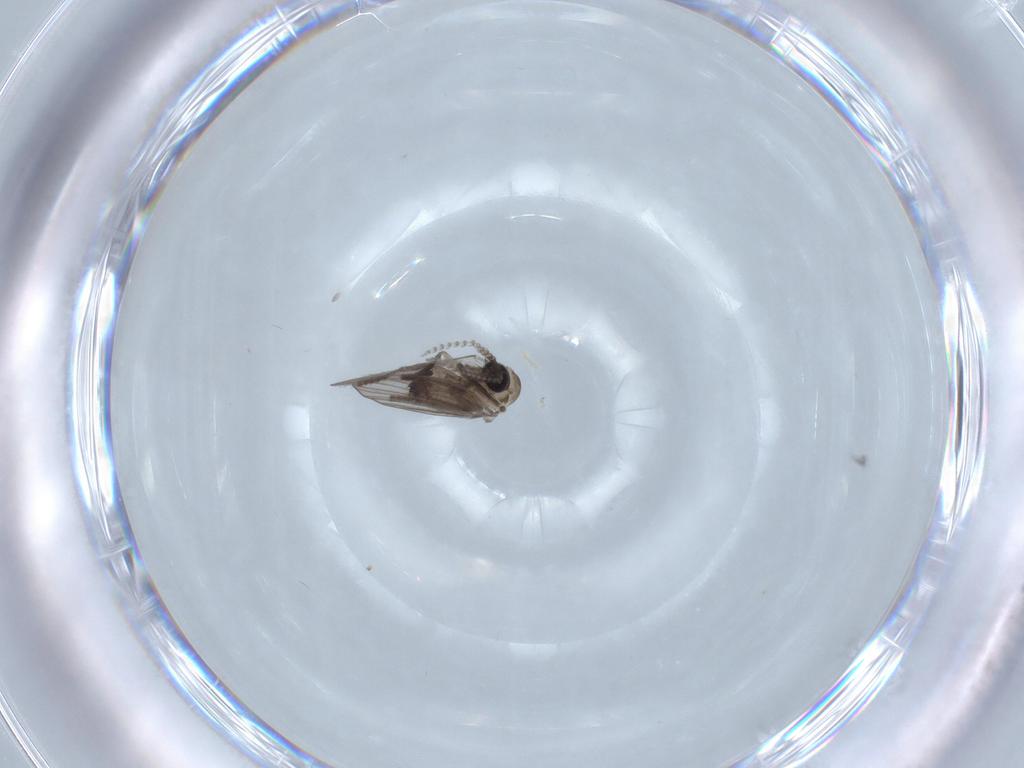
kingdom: Animalia
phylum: Arthropoda
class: Insecta
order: Diptera
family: Psychodidae
